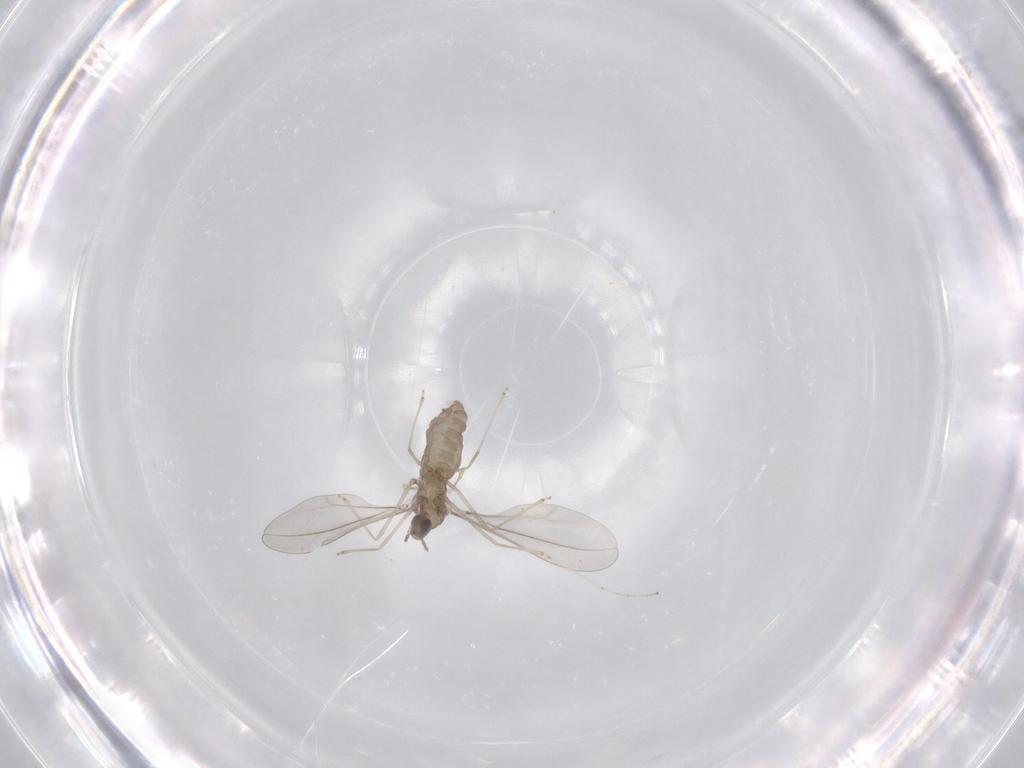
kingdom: Animalia
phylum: Arthropoda
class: Insecta
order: Diptera
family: Cecidomyiidae
